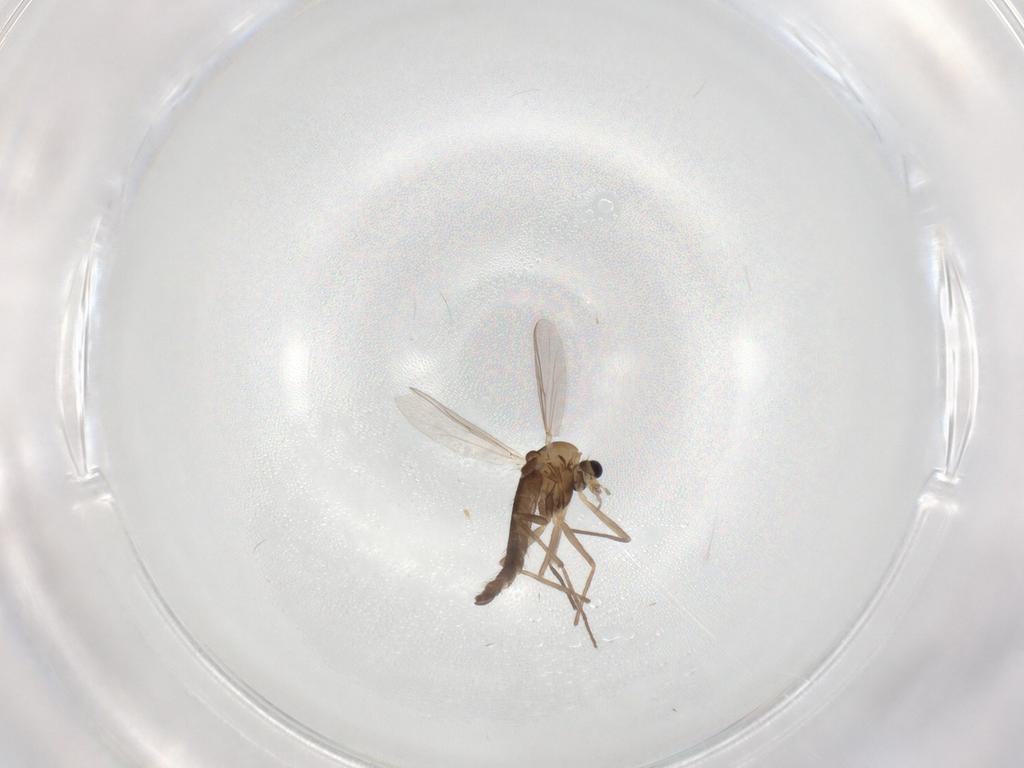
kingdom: Animalia
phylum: Arthropoda
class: Insecta
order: Diptera
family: Chironomidae
